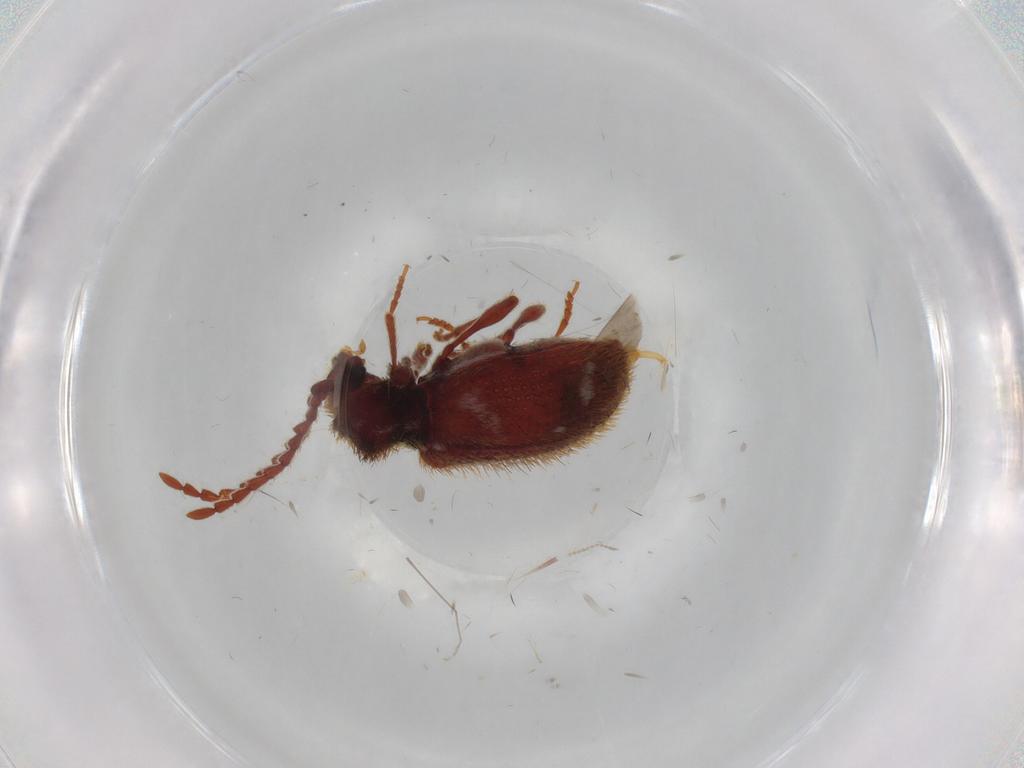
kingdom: Animalia
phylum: Arthropoda
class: Insecta
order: Coleoptera
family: Ptinidae
